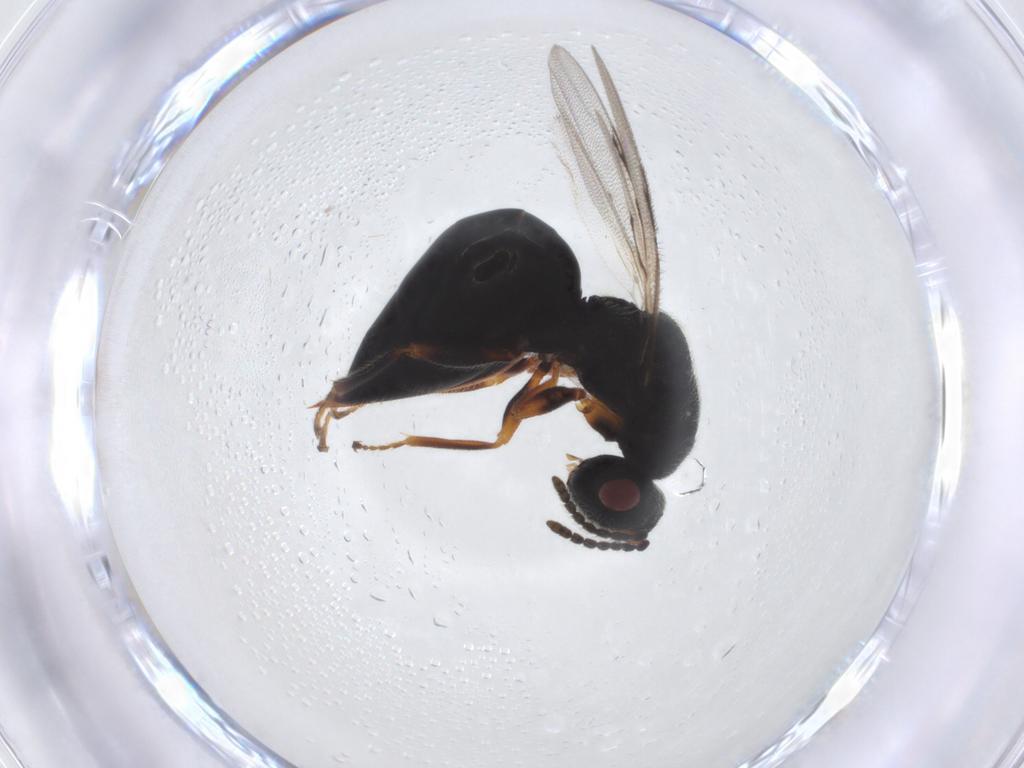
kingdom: Animalia
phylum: Arthropoda
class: Insecta
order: Hymenoptera
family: Eurytomidae
